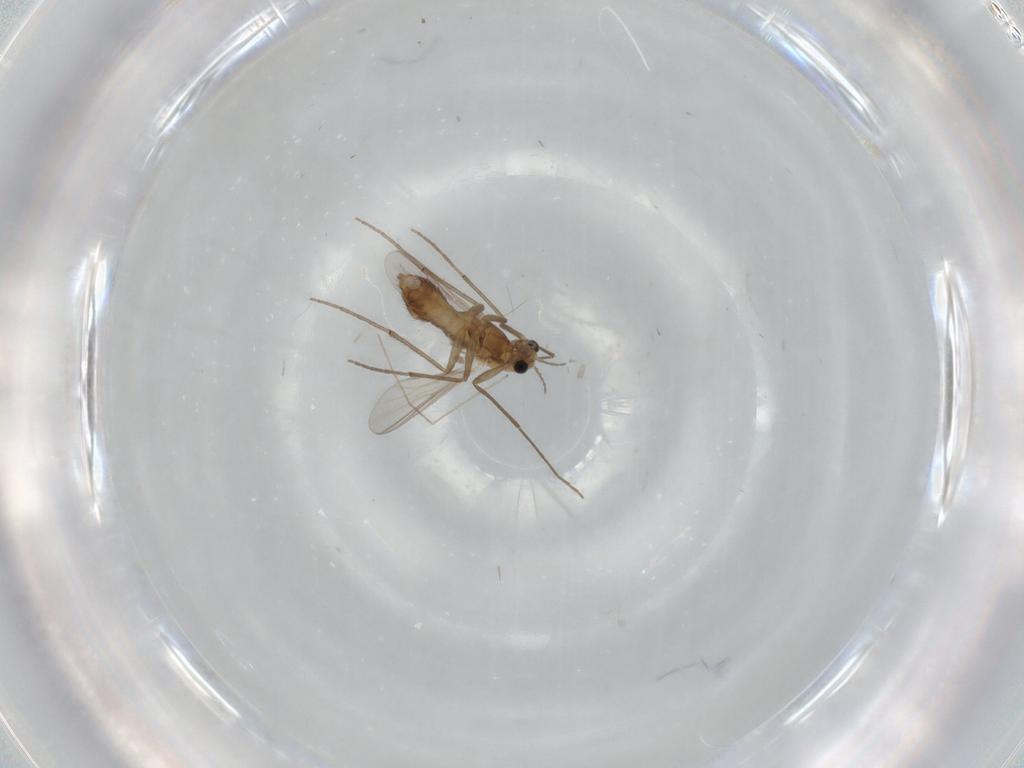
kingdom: Animalia
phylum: Arthropoda
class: Insecta
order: Diptera
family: Chironomidae
